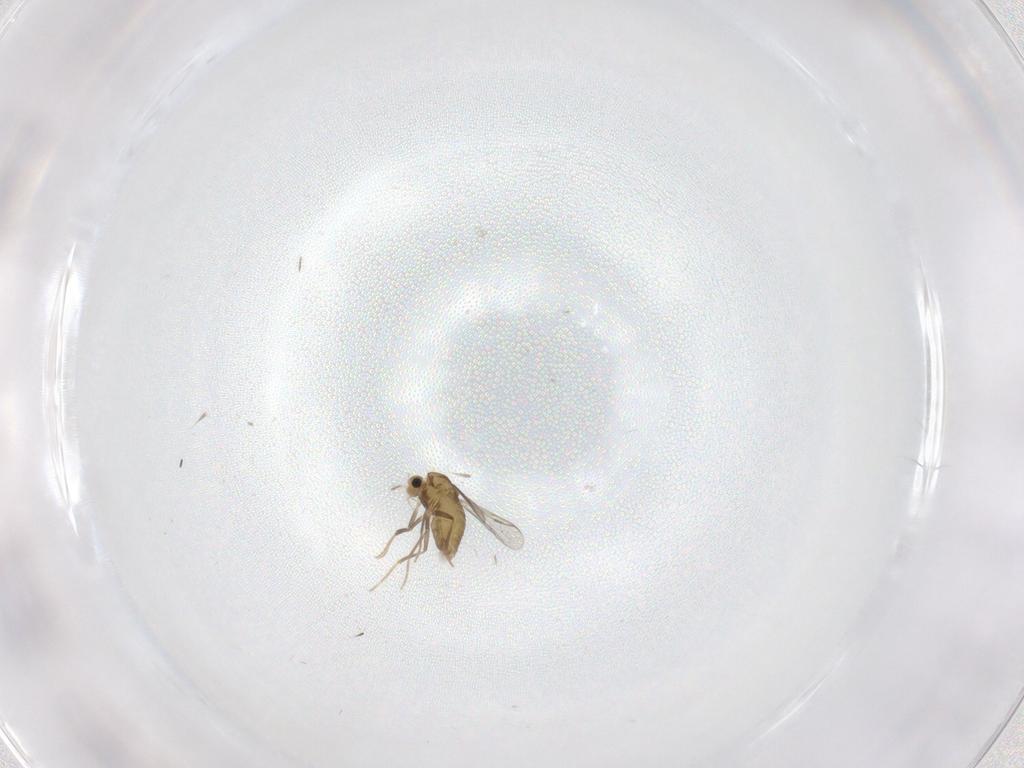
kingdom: Animalia
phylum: Arthropoda
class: Insecta
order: Diptera
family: Chironomidae
